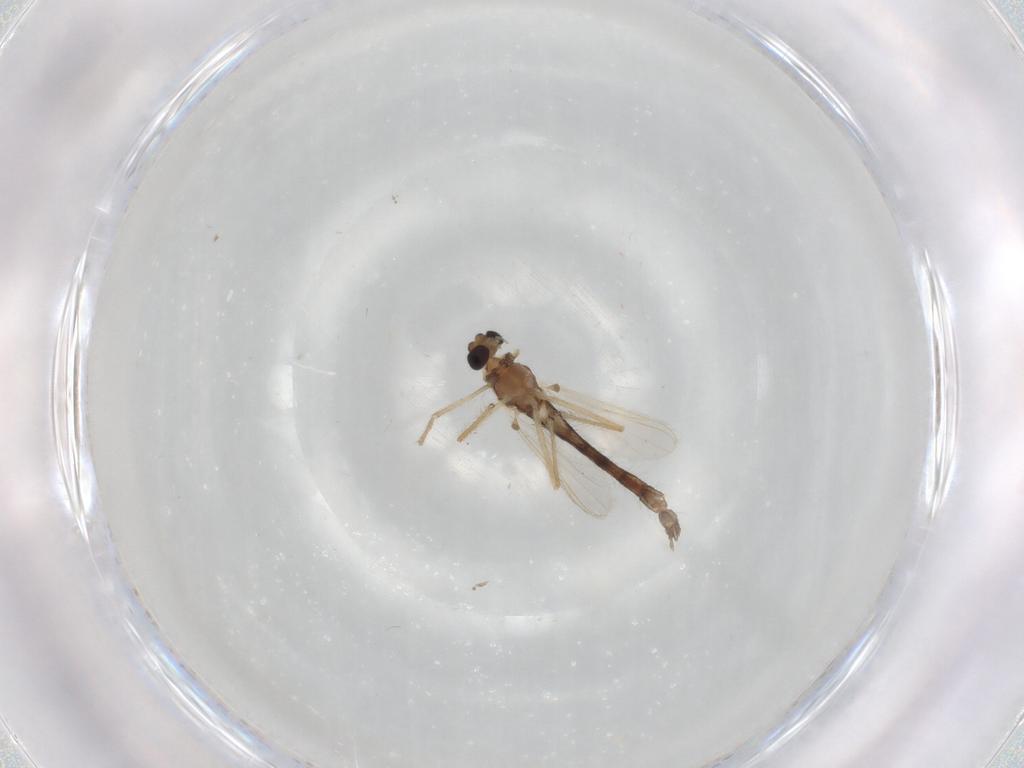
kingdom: Animalia
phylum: Arthropoda
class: Insecta
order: Diptera
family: Chironomidae
